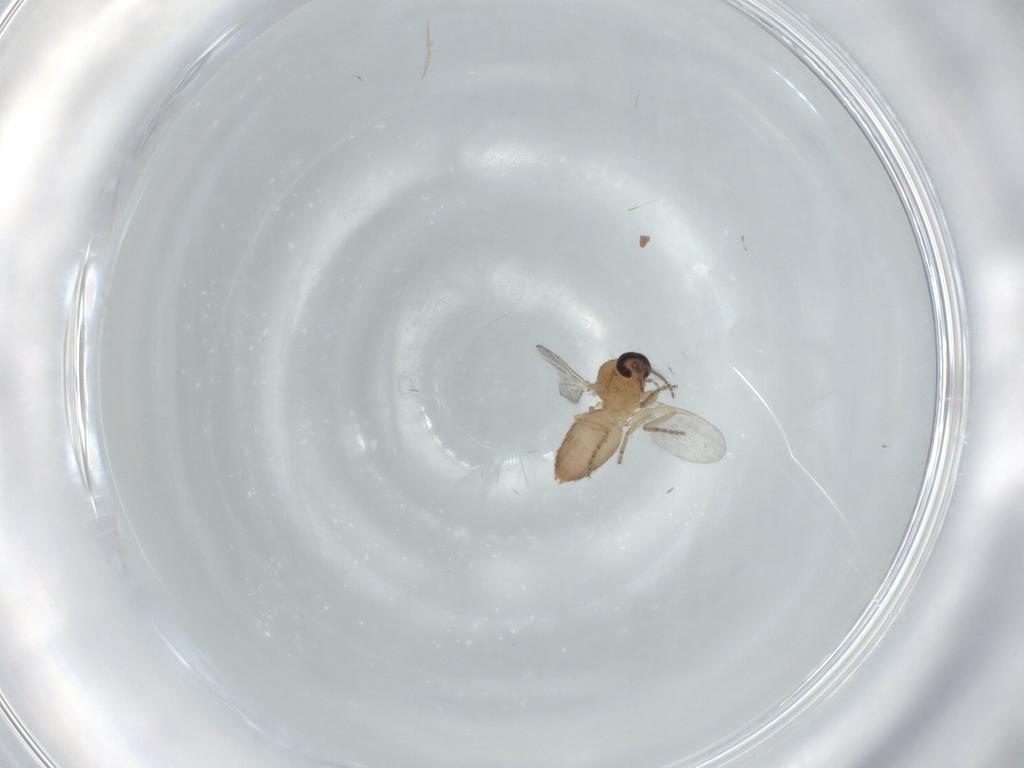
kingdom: Animalia
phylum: Arthropoda
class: Insecta
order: Diptera
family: Ceratopogonidae
